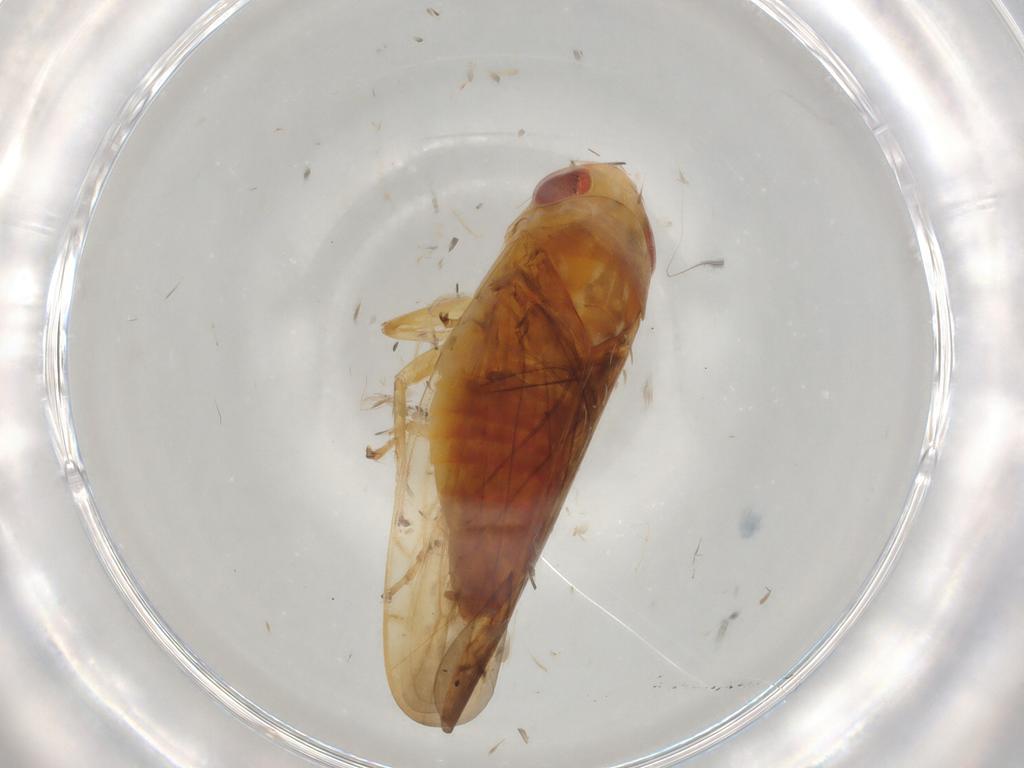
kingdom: Animalia
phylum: Arthropoda
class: Insecta
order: Hemiptera
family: Cicadellidae
